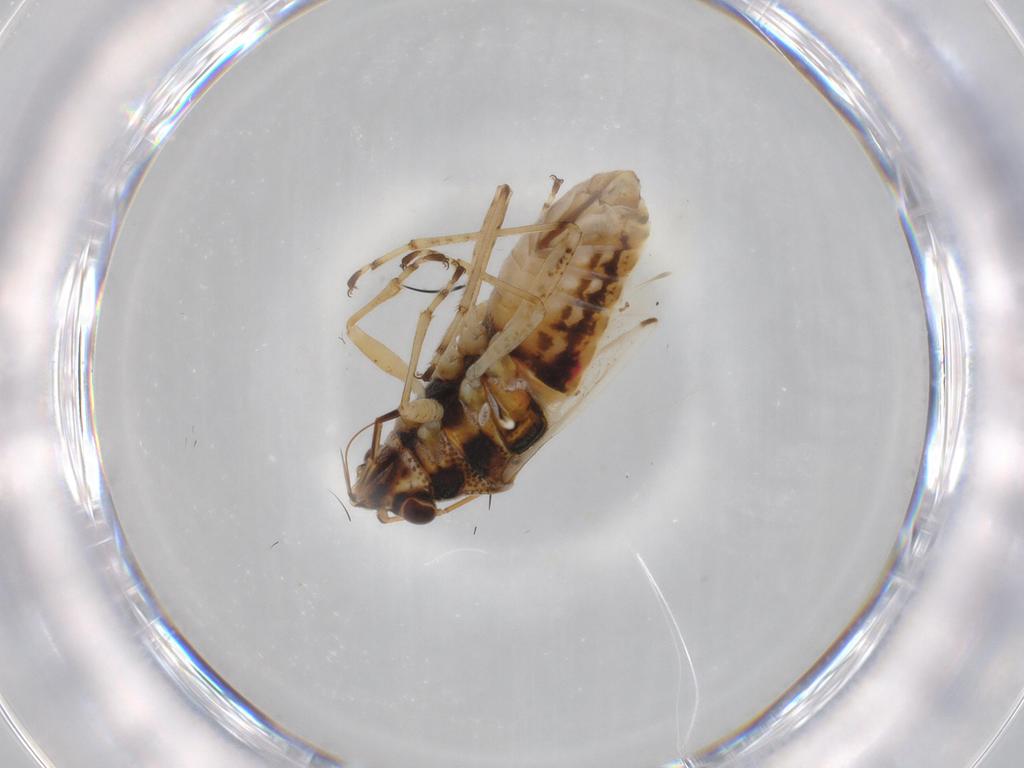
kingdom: Animalia
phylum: Arthropoda
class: Insecta
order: Hemiptera
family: Lygaeidae
